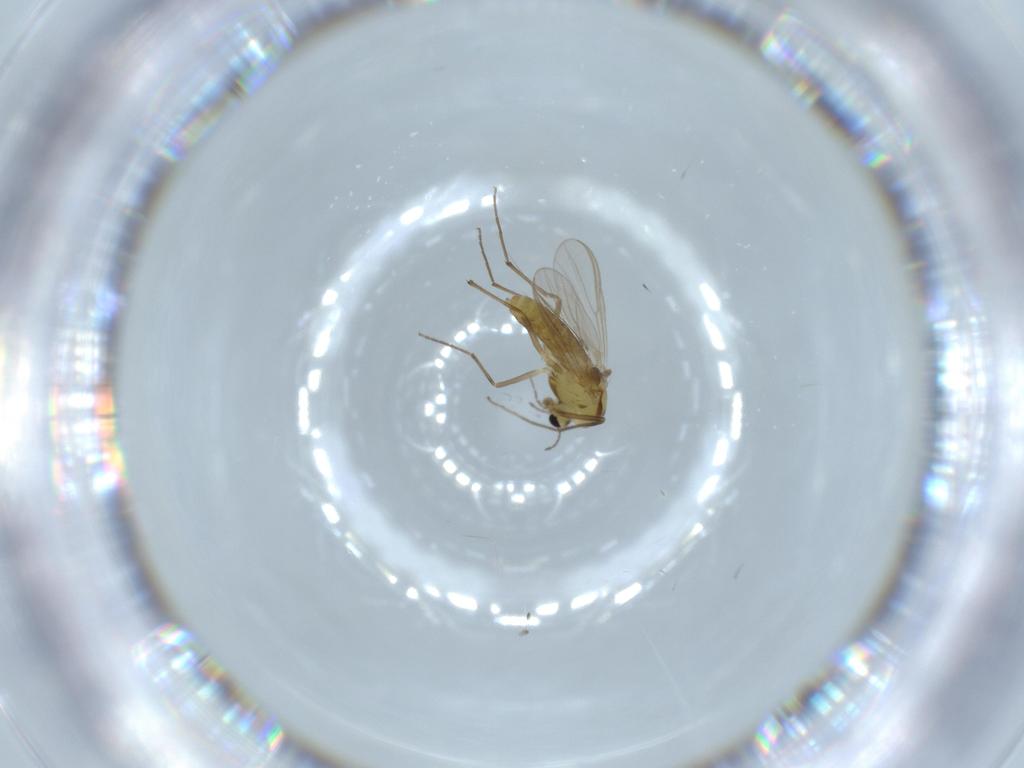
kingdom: Animalia
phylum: Arthropoda
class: Insecta
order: Diptera
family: Chironomidae
